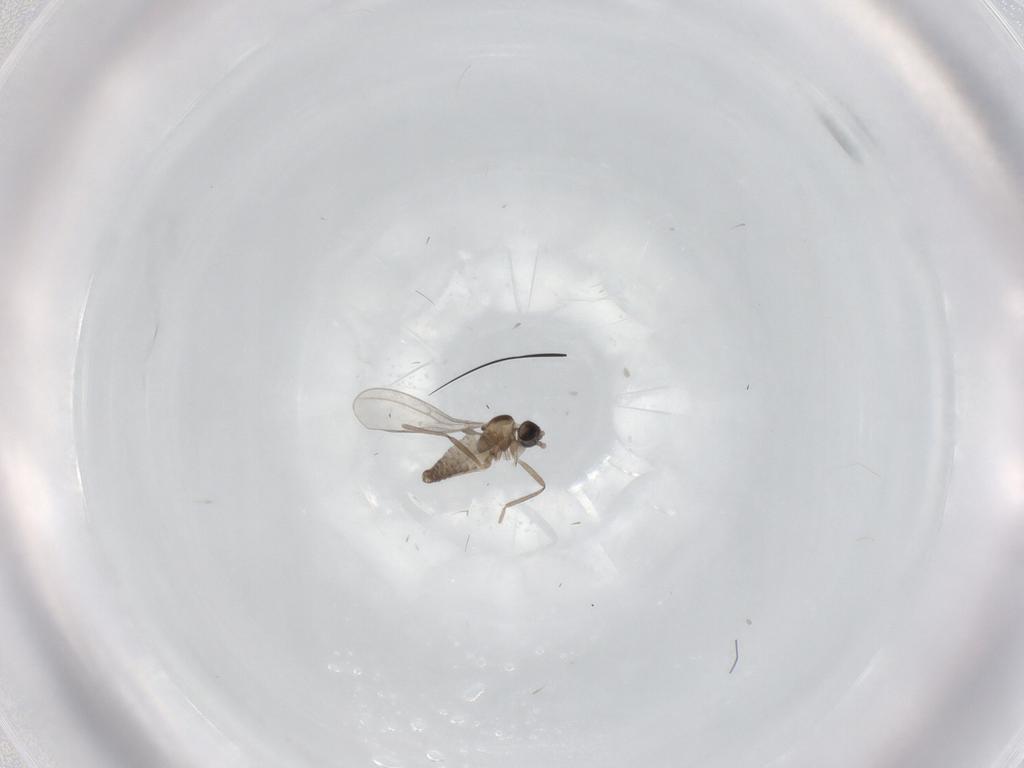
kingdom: Animalia
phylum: Arthropoda
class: Insecta
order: Diptera
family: Cecidomyiidae
